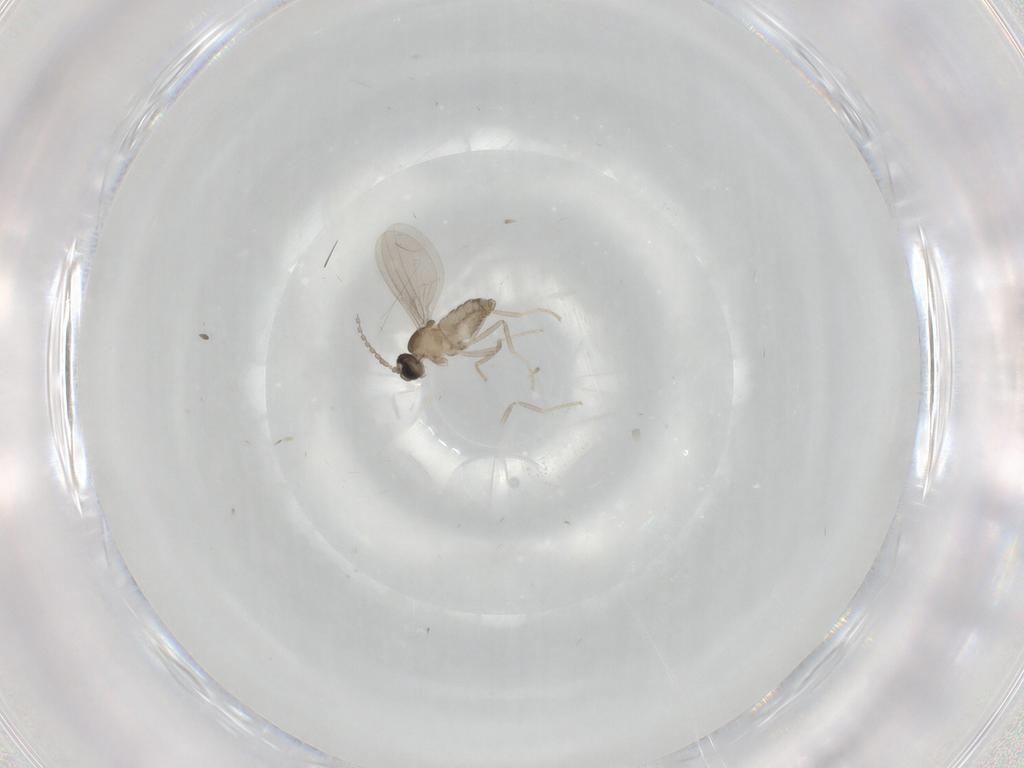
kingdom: Animalia
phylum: Arthropoda
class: Insecta
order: Diptera
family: Cecidomyiidae
